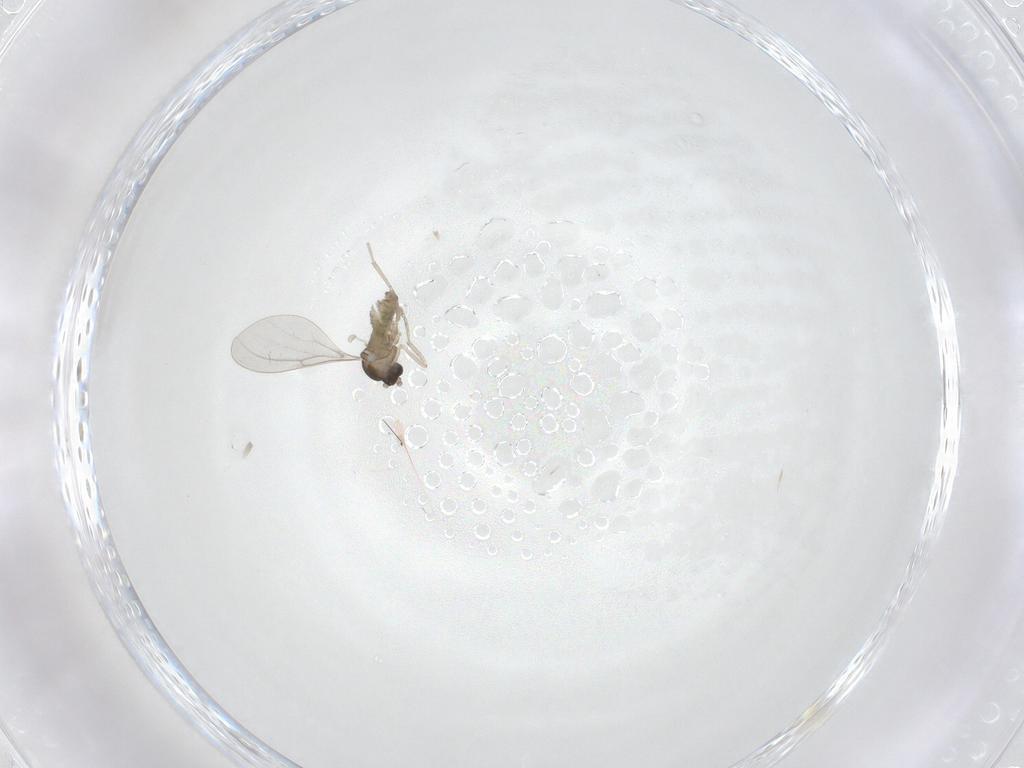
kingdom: Animalia
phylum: Arthropoda
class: Insecta
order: Diptera
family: Cecidomyiidae
